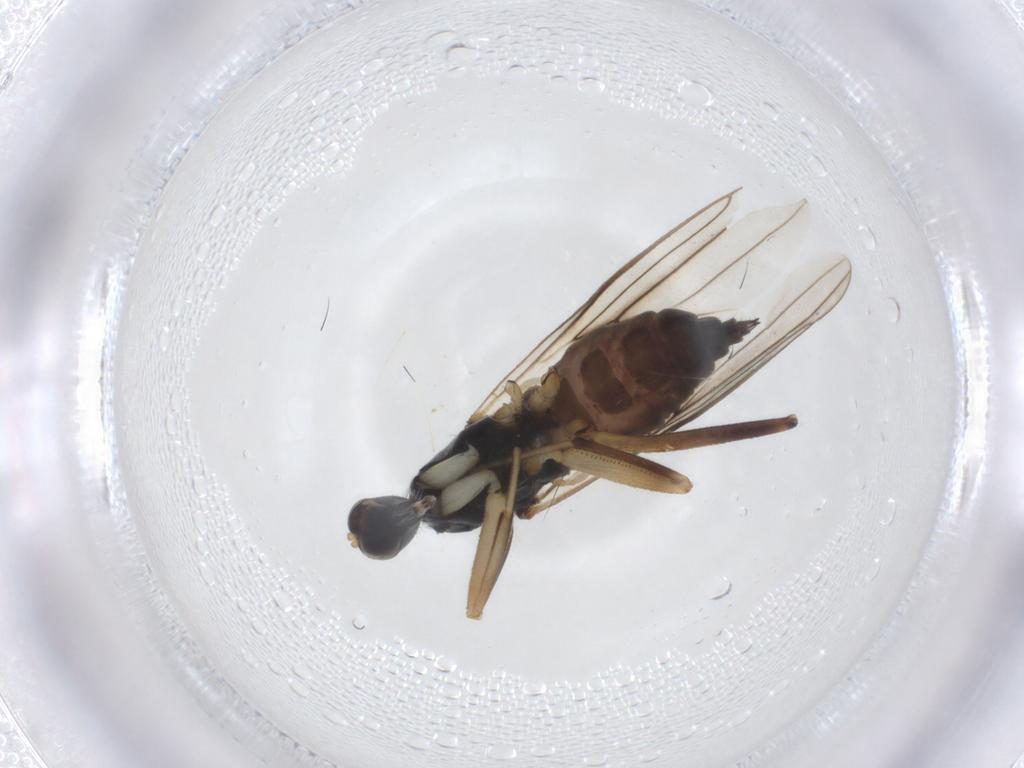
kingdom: Animalia
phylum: Arthropoda
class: Insecta
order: Diptera
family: Hybotidae
